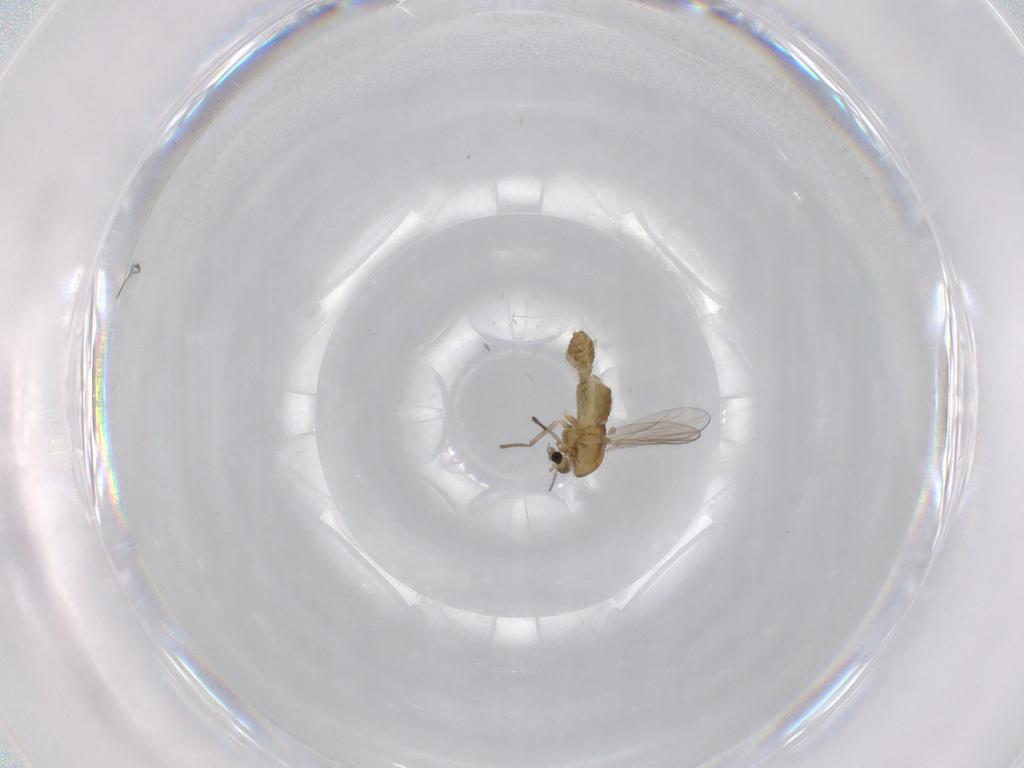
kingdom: Animalia
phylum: Arthropoda
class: Insecta
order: Diptera
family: Chironomidae
